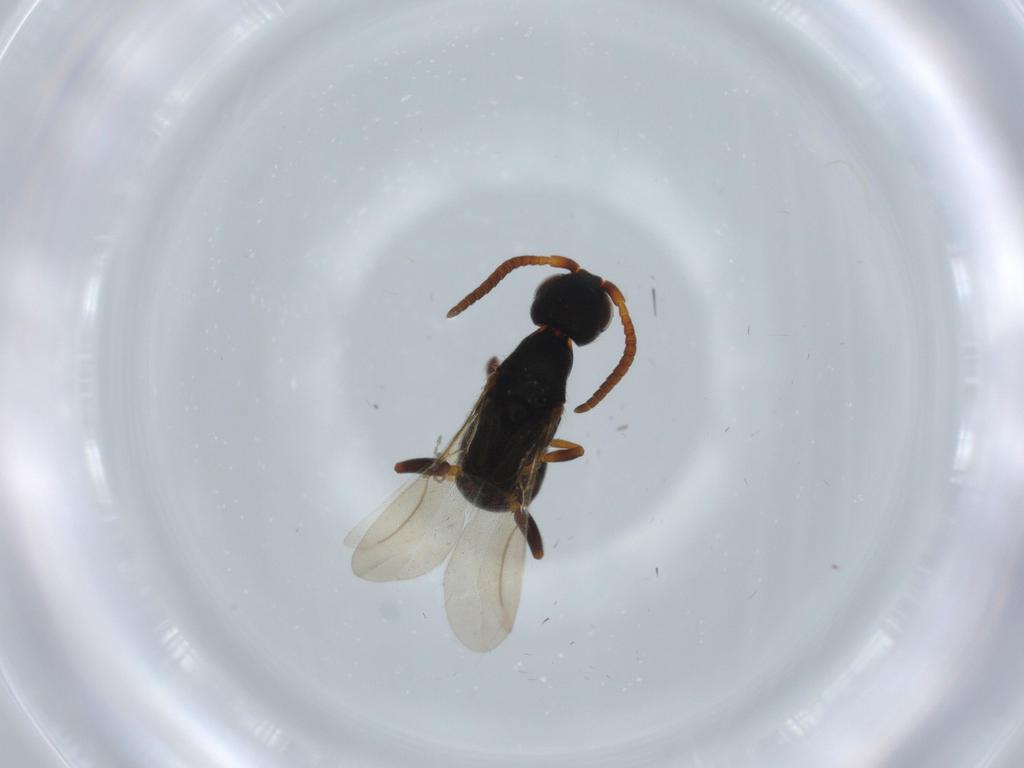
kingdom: Animalia
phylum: Arthropoda
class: Insecta
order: Hymenoptera
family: Bethylidae
